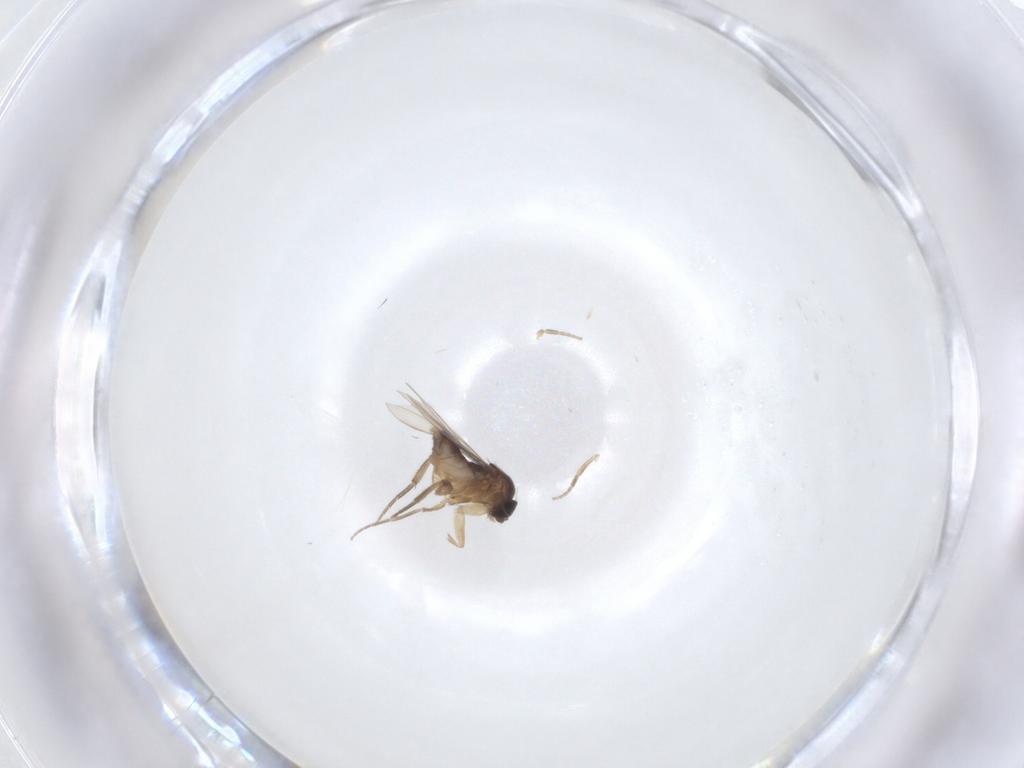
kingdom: Animalia
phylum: Arthropoda
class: Insecta
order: Diptera
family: Phoridae
